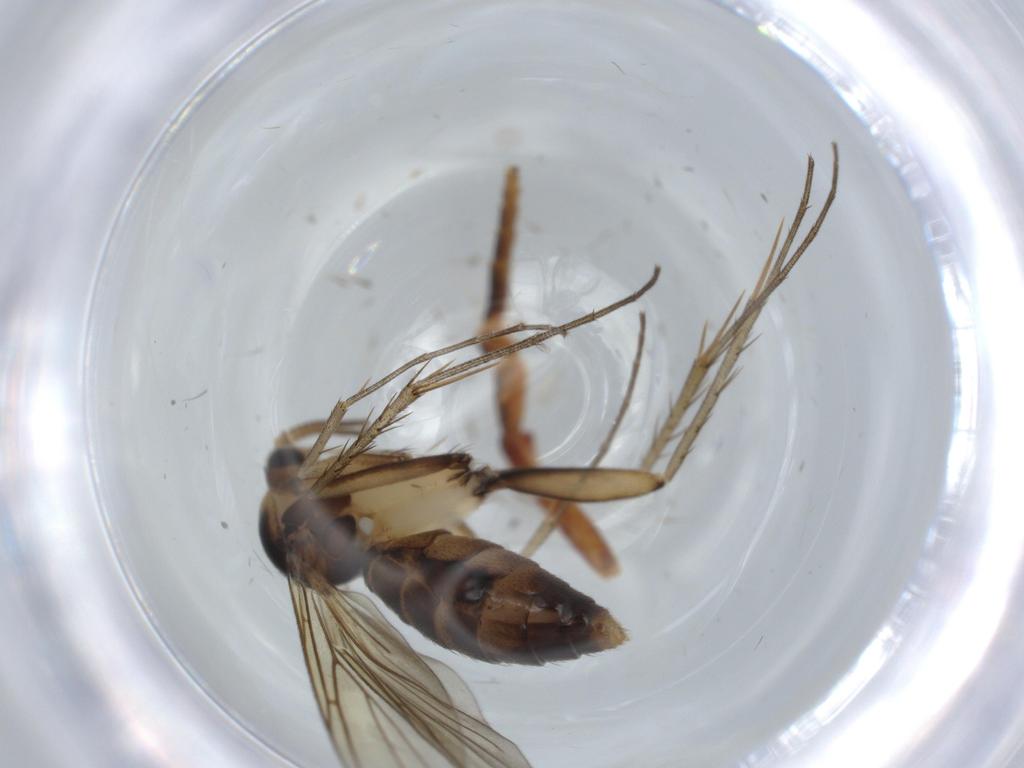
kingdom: Animalia
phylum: Arthropoda
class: Insecta
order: Diptera
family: Mycetophilidae
